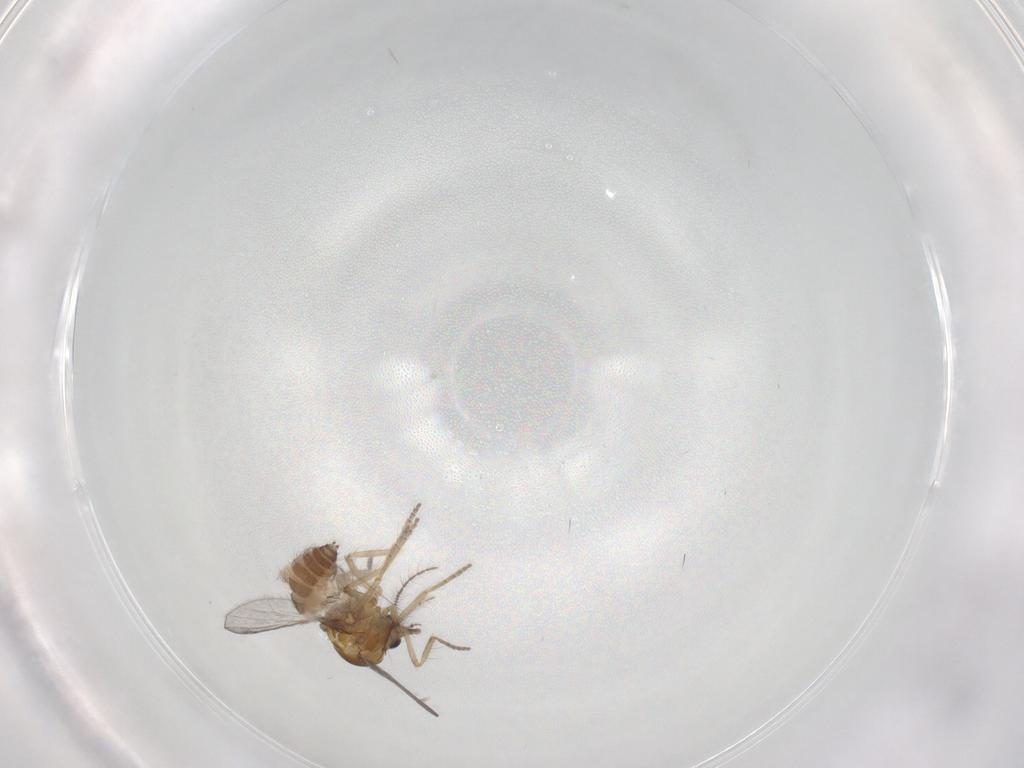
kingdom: Animalia
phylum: Arthropoda
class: Insecta
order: Diptera
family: Ceratopogonidae
